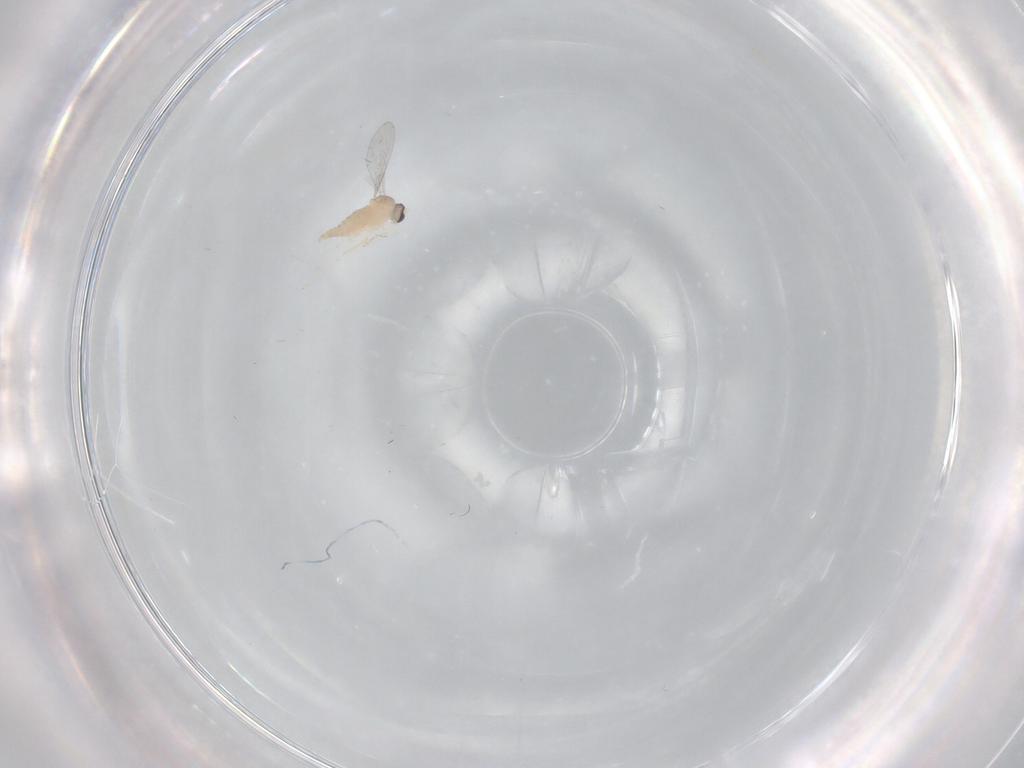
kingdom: Animalia
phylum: Arthropoda
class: Insecta
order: Diptera
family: Cecidomyiidae
